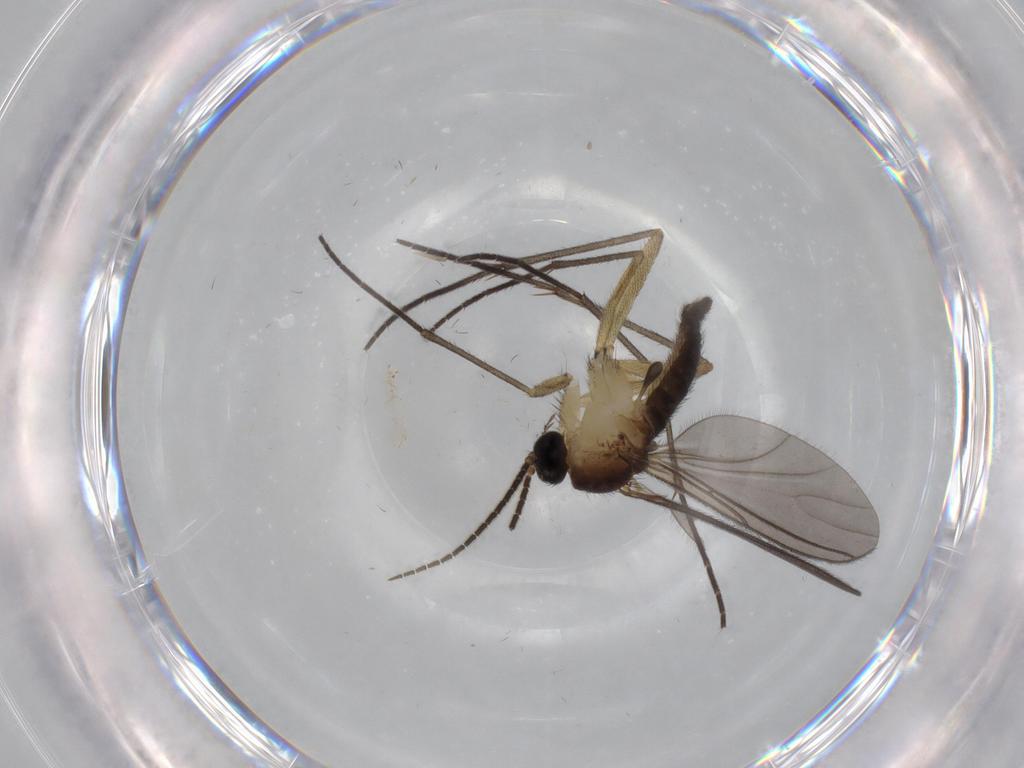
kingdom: Animalia
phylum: Arthropoda
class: Insecta
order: Diptera
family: Sciaridae
